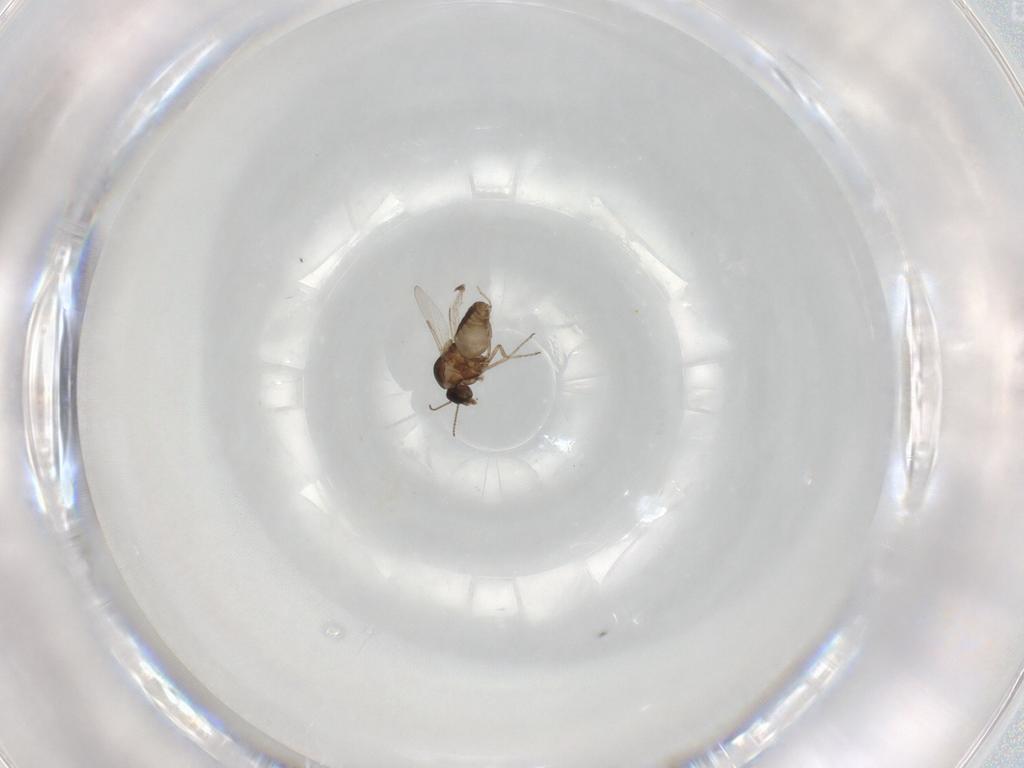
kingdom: Animalia
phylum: Arthropoda
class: Insecta
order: Diptera
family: Ceratopogonidae
